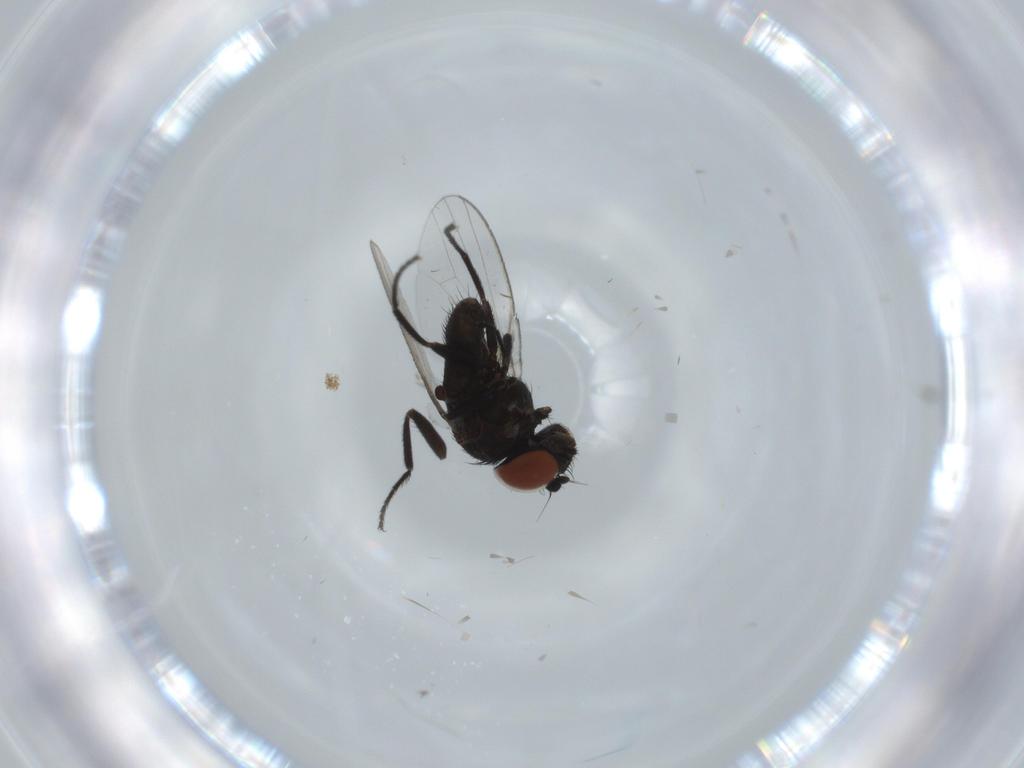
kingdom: Animalia
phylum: Arthropoda
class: Insecta
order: Diptera
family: Milichiidae
